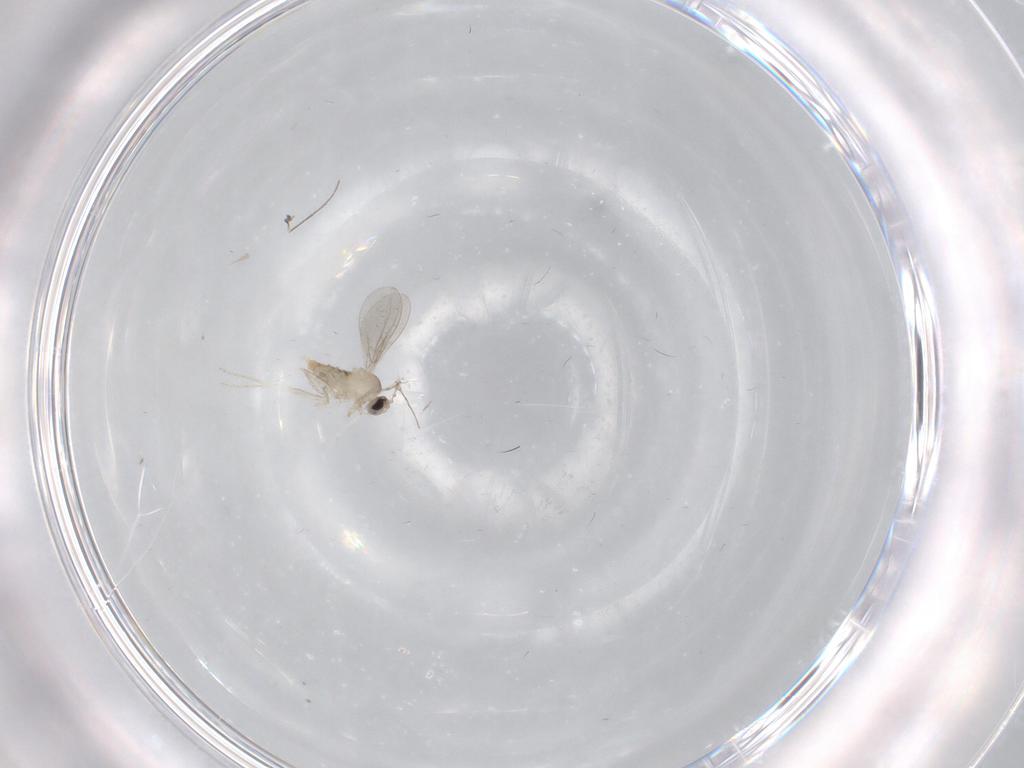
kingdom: Animalia
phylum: Arthropoda
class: Insecta
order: Diptera
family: Cecidomyiidae
